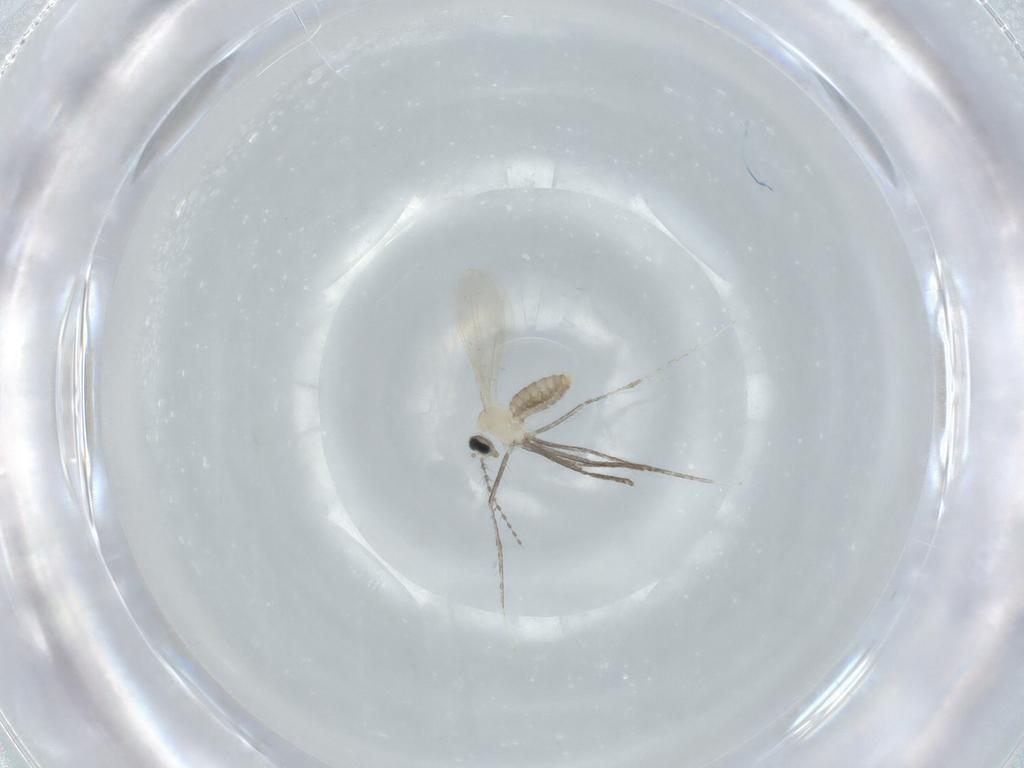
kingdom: Animalia
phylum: Arthropoda
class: Insecta
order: Diptera
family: Cecidomyiidae
